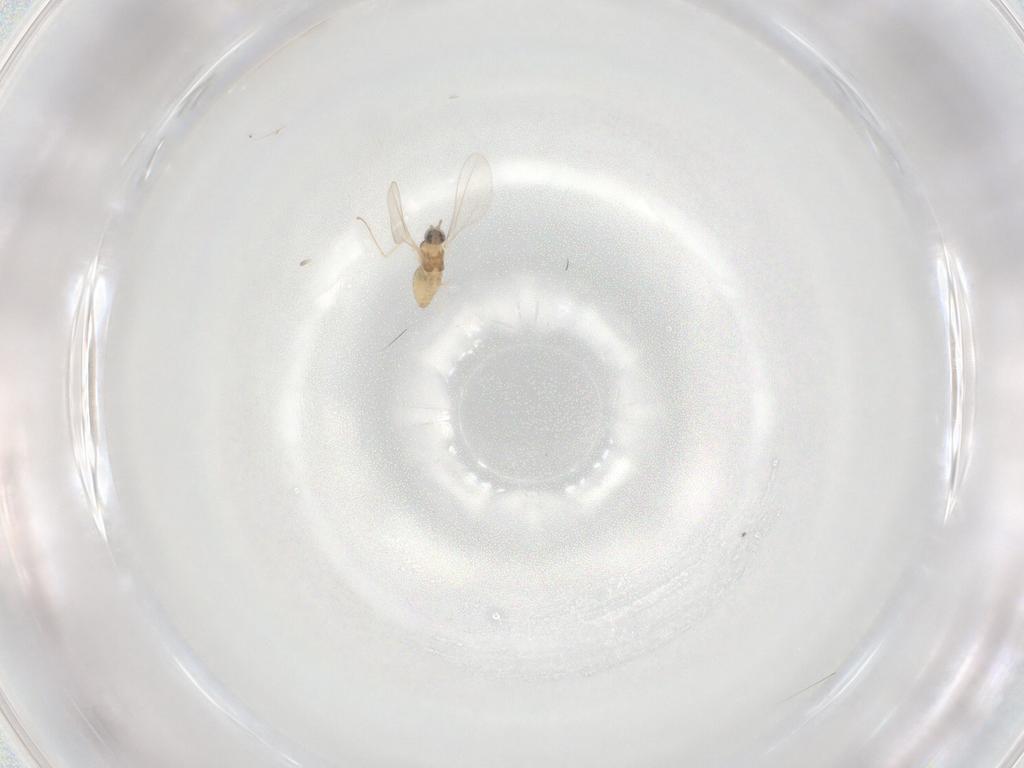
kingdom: Animalia
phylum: Arthropoda
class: Insecta
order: Diptera
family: Cecidomyiidae
